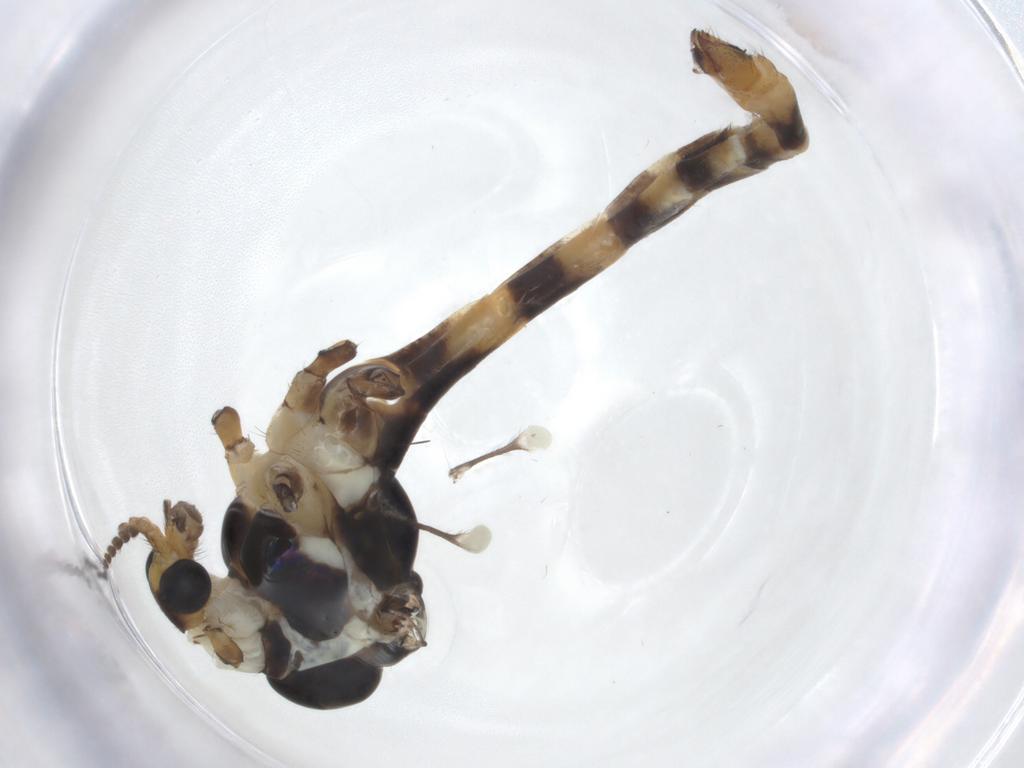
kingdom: Animalia
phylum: Arthropoda
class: Insecta
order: Diptera
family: Limoniidae
